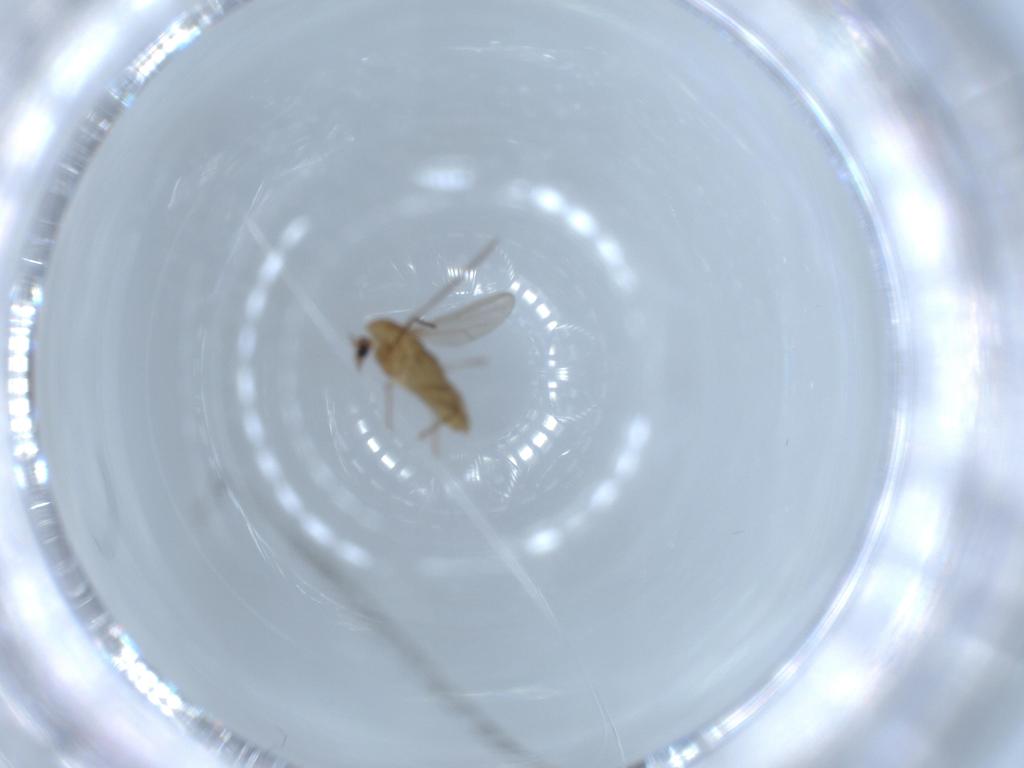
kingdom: Animalia
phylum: Arthropoda
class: Insecta
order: Diptera
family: Chironomidae
